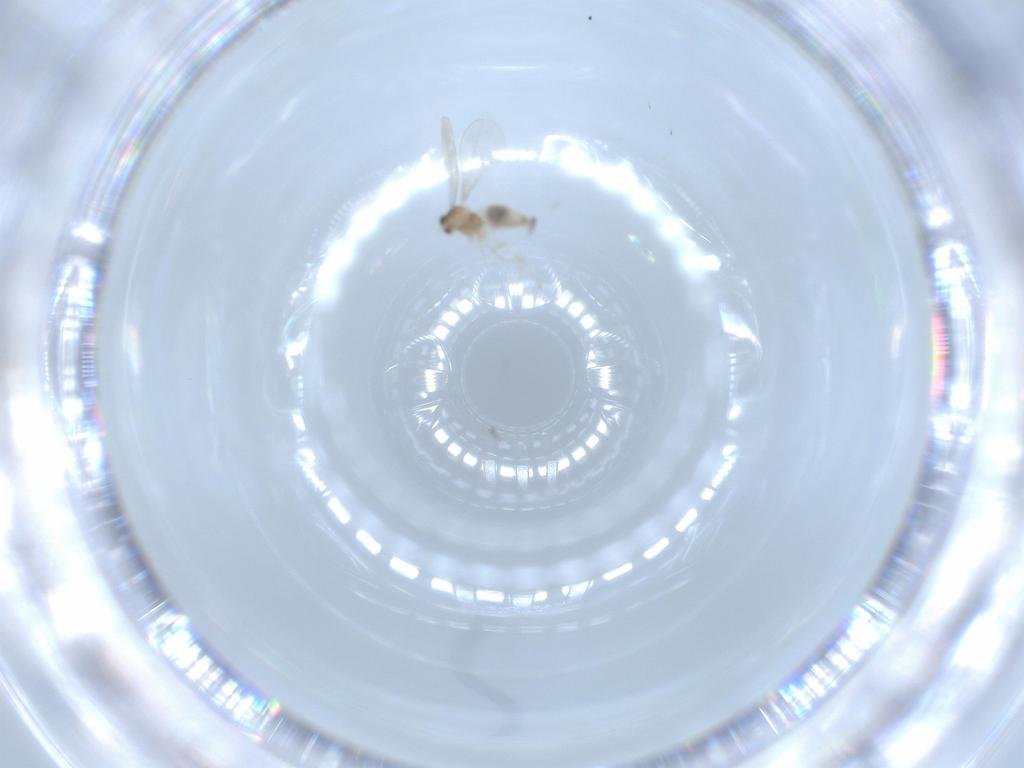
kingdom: Animalia
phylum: Arthropoda
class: Insecta
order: Diptera
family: Cecidomyiidae
